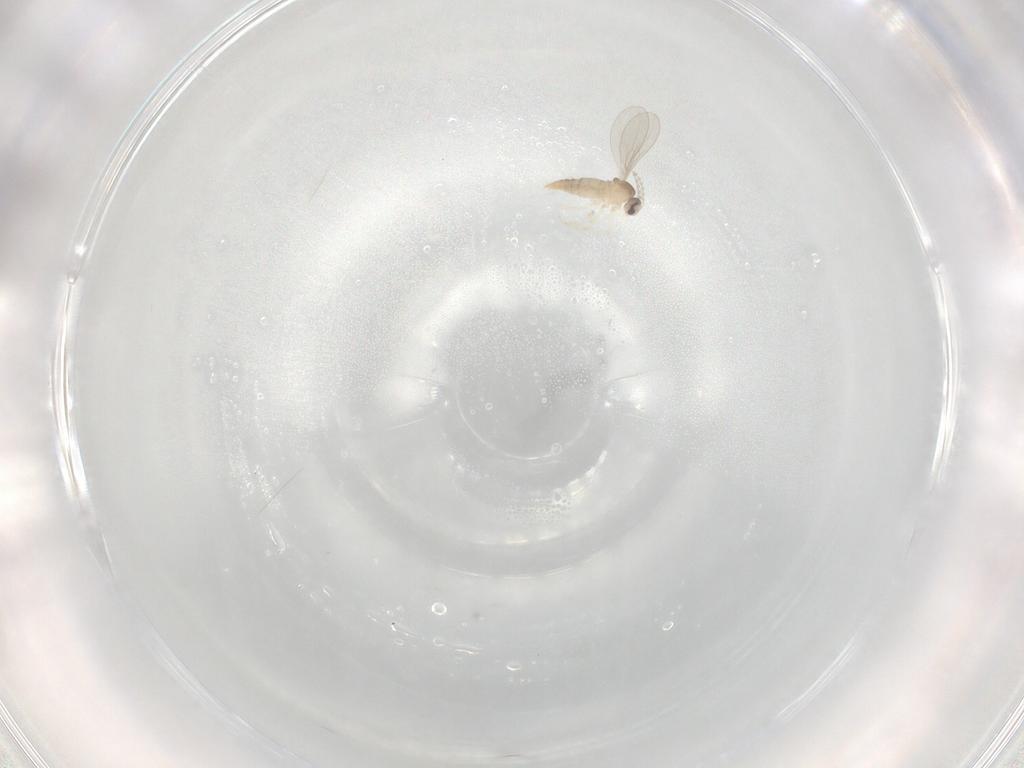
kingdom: Animalia
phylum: Arthropoda
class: Insecta
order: Diptera
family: Cecidomyiidae
